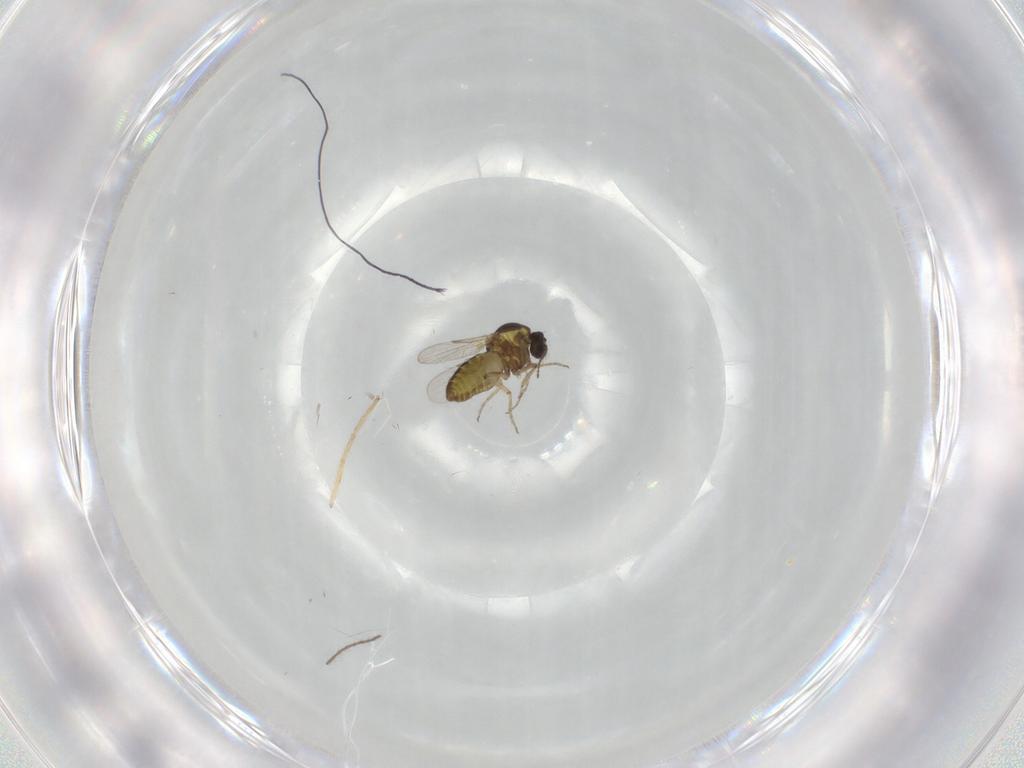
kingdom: Animalia
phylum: Arthropoda
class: Insecta
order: Diptera
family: Ceratopogonidae
